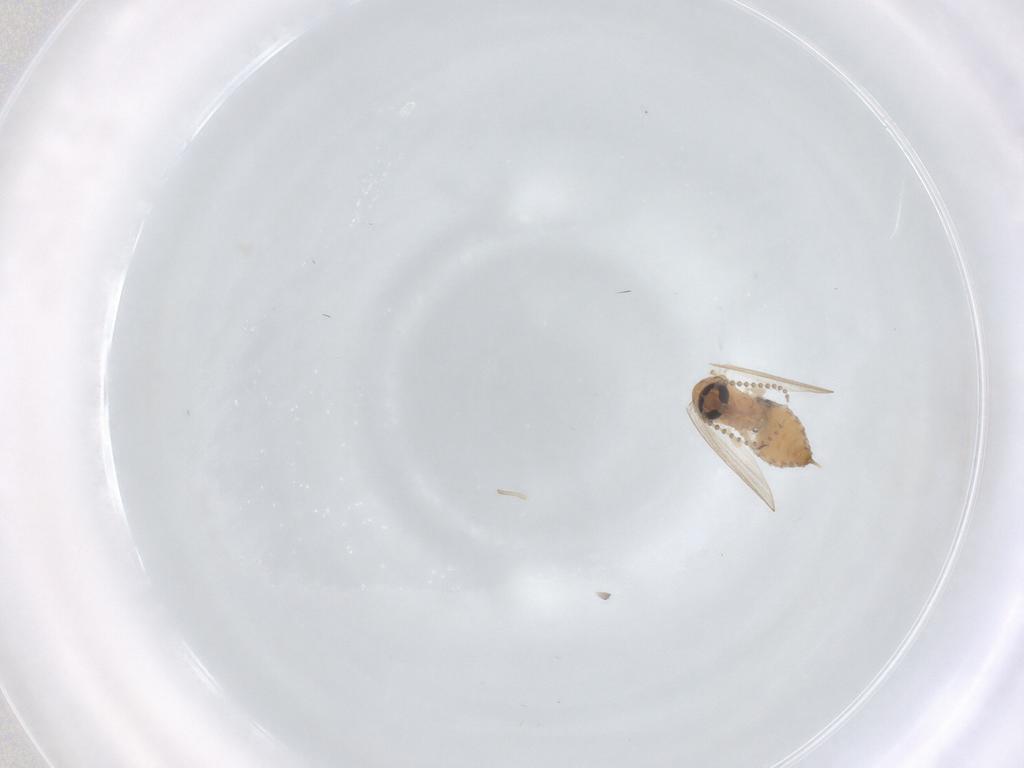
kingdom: Animalia
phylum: Arthropoda
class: Insecta
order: Diptera
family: Psychodidae
